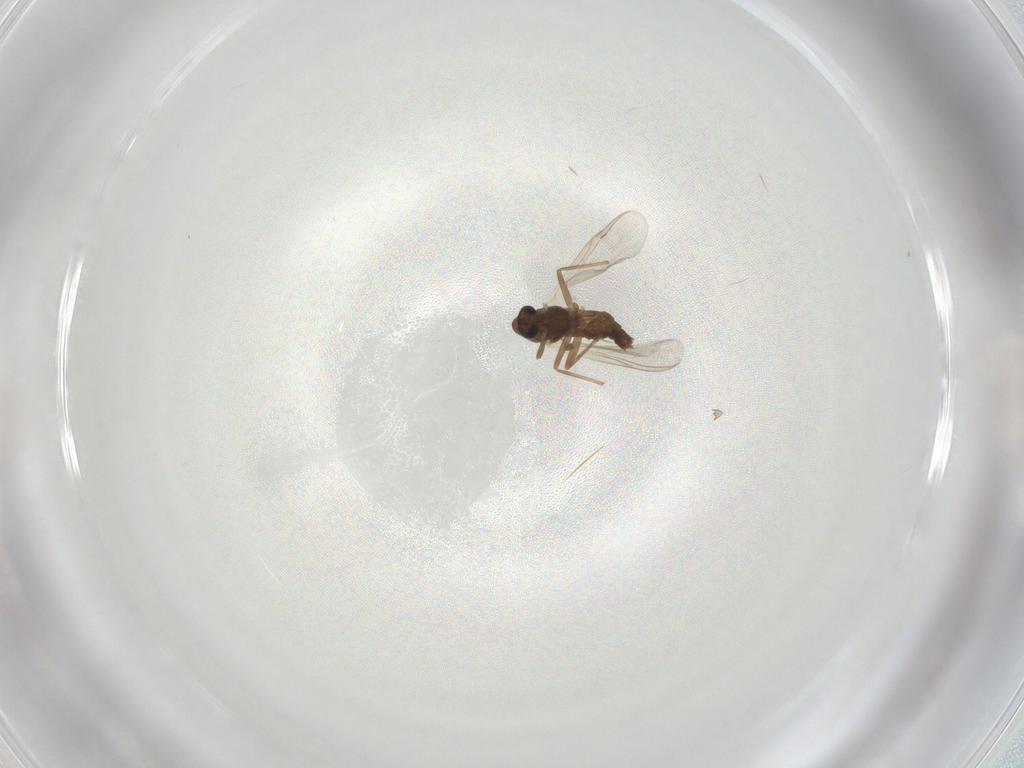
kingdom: Animalia
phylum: Arthropoda
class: Insecta
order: Diptera
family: Chironomidae
